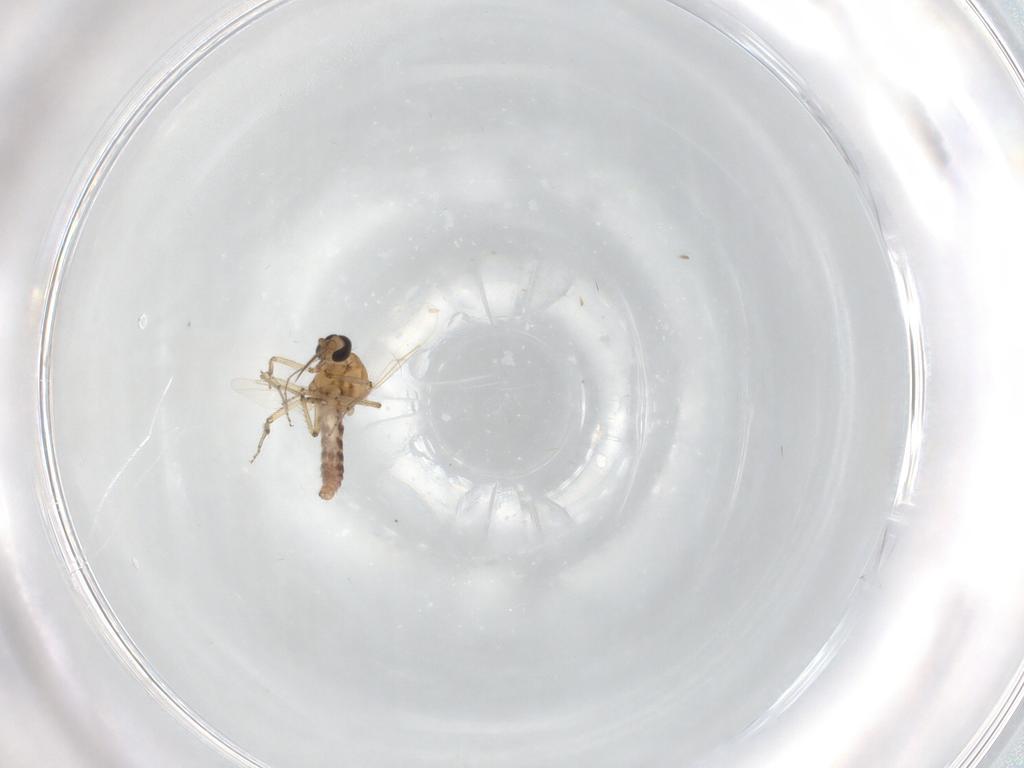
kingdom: Animalia
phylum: Arthropoda
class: Insecta
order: Diptera
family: Ceratopogonidae
